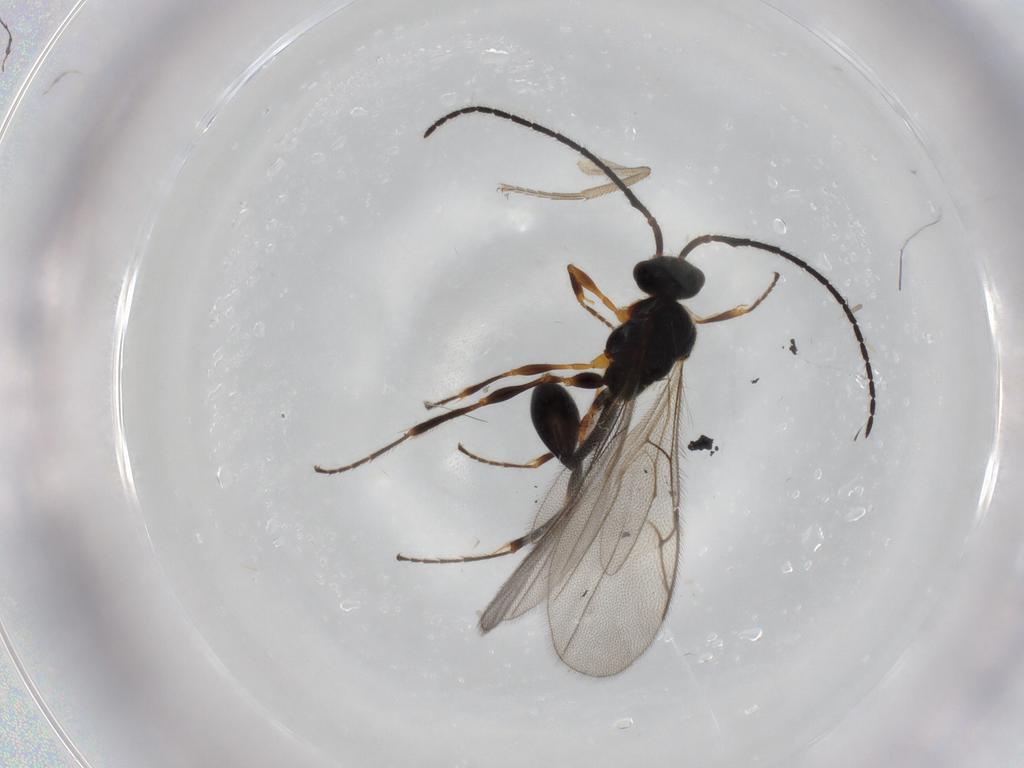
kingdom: Animalia
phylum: Arthropoda
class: Insecta
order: Hymenoptera
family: Diapriidae
